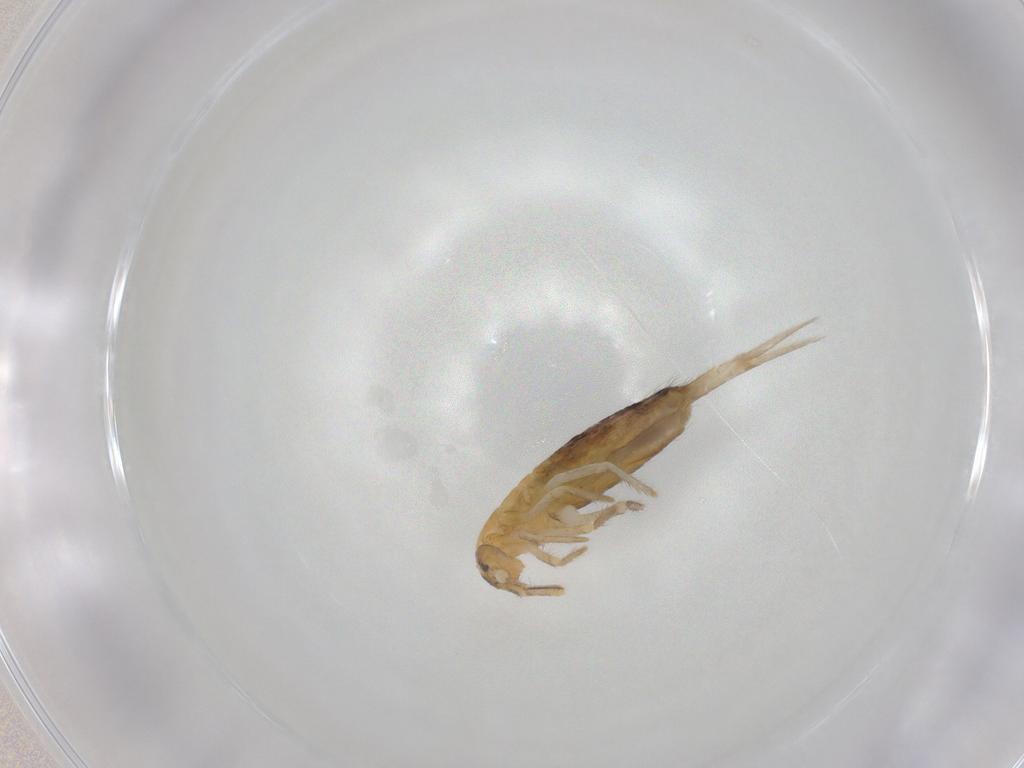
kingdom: Animalia
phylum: Arthropoda
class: Collembola
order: Entomobryomorpha
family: Entomobryidae
